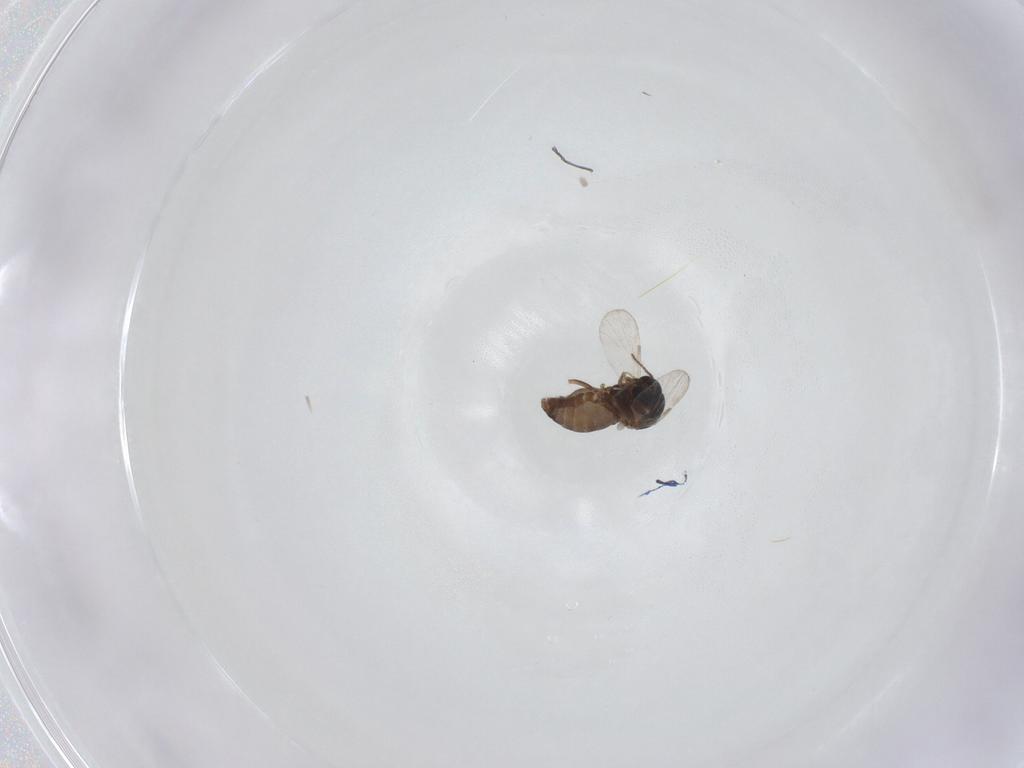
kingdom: Animalia
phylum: Arthropoda
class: Insecta
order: Diptera
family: Ceratopogonidae
